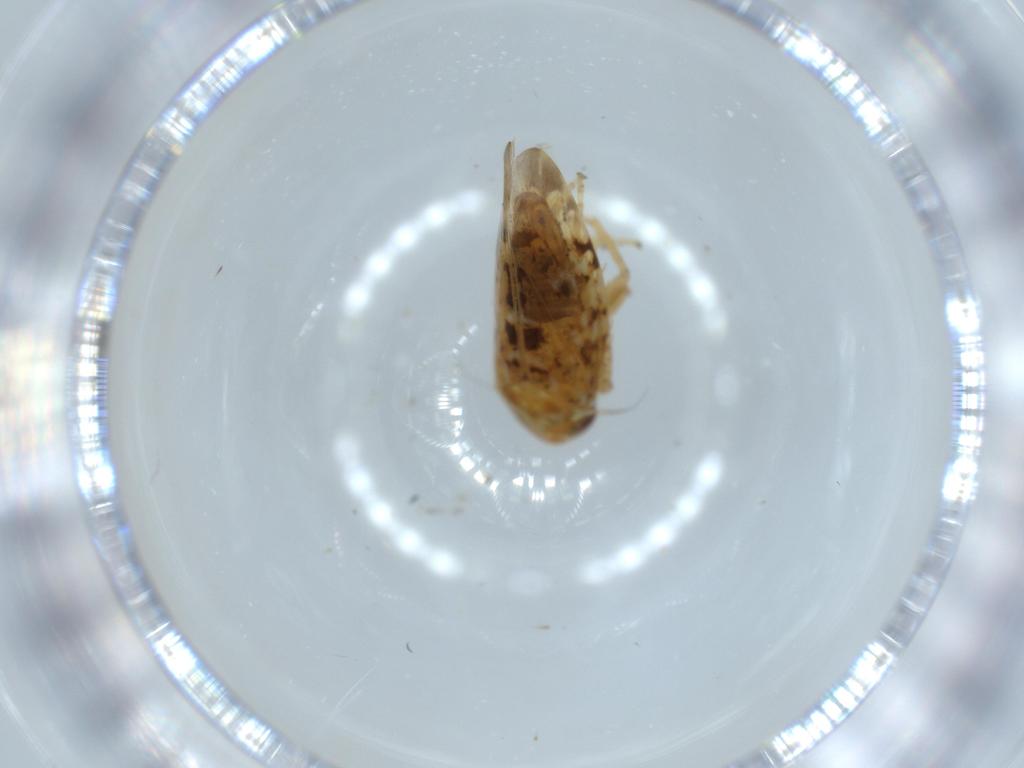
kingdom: Animalia
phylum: Arthropoda
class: Insecta
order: Hemiptera
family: Cicadellidae
